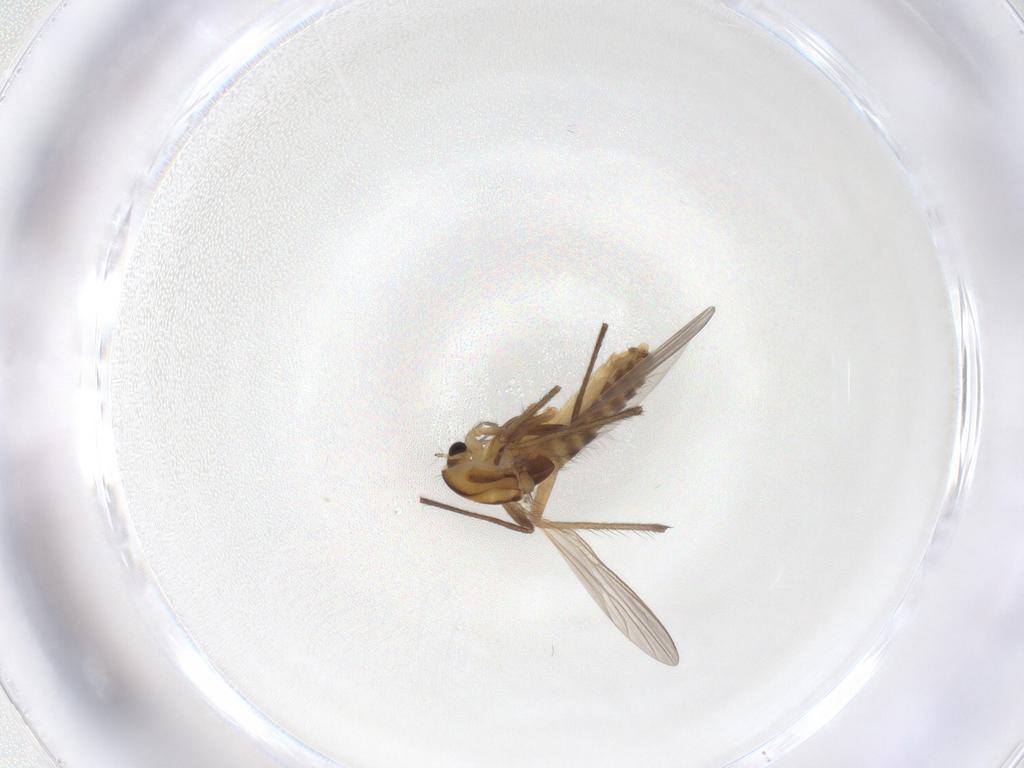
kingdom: Animalia
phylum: Arthropoda
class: Insecta
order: Diptera
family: Chironomidae
